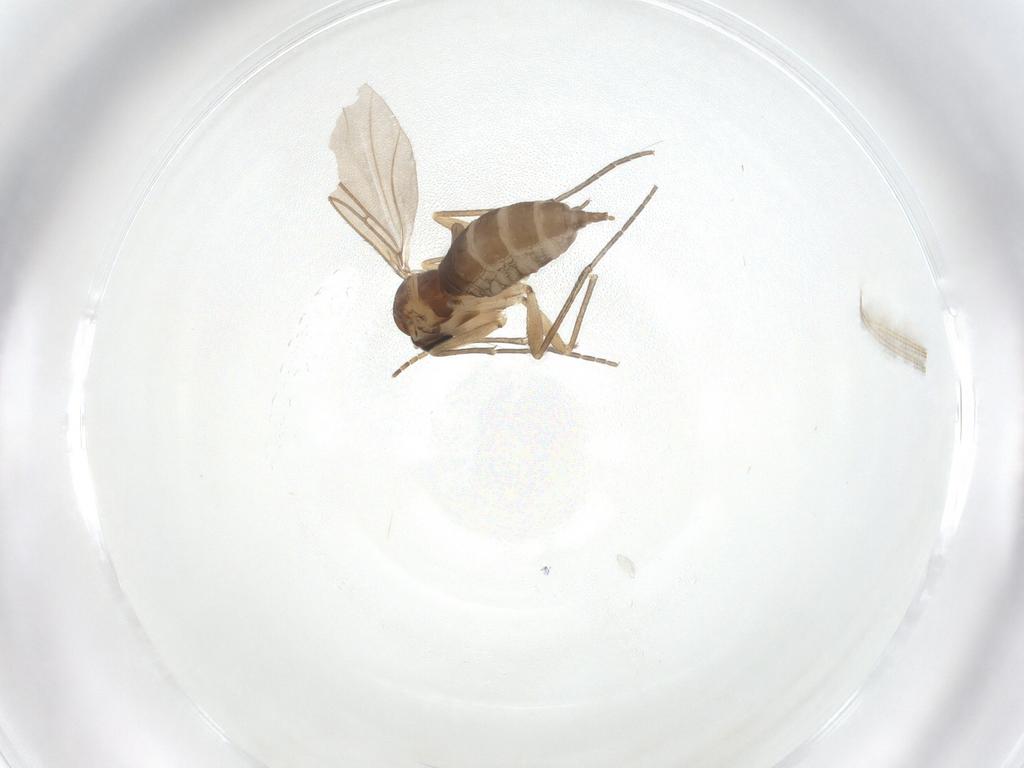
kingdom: Animalia
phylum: Arthropoda
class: Insecta
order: Diptera
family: Sciaridae
